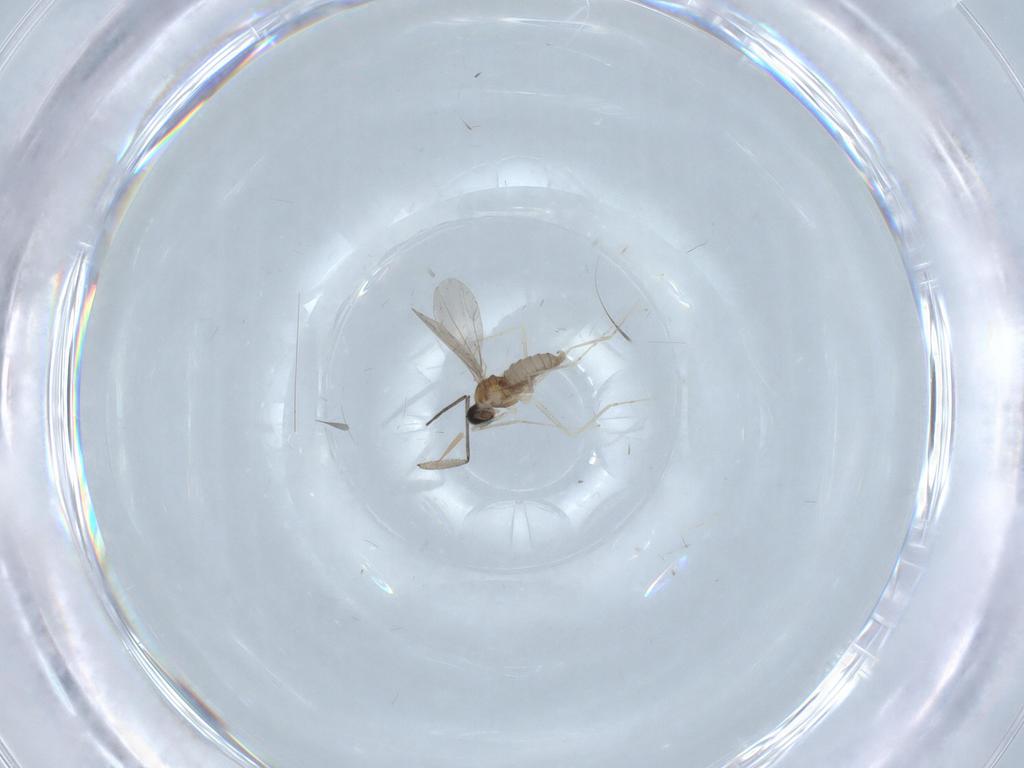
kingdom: Animalia
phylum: Arthropoda
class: Insecta
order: Diptera
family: Cecidomyiidae
